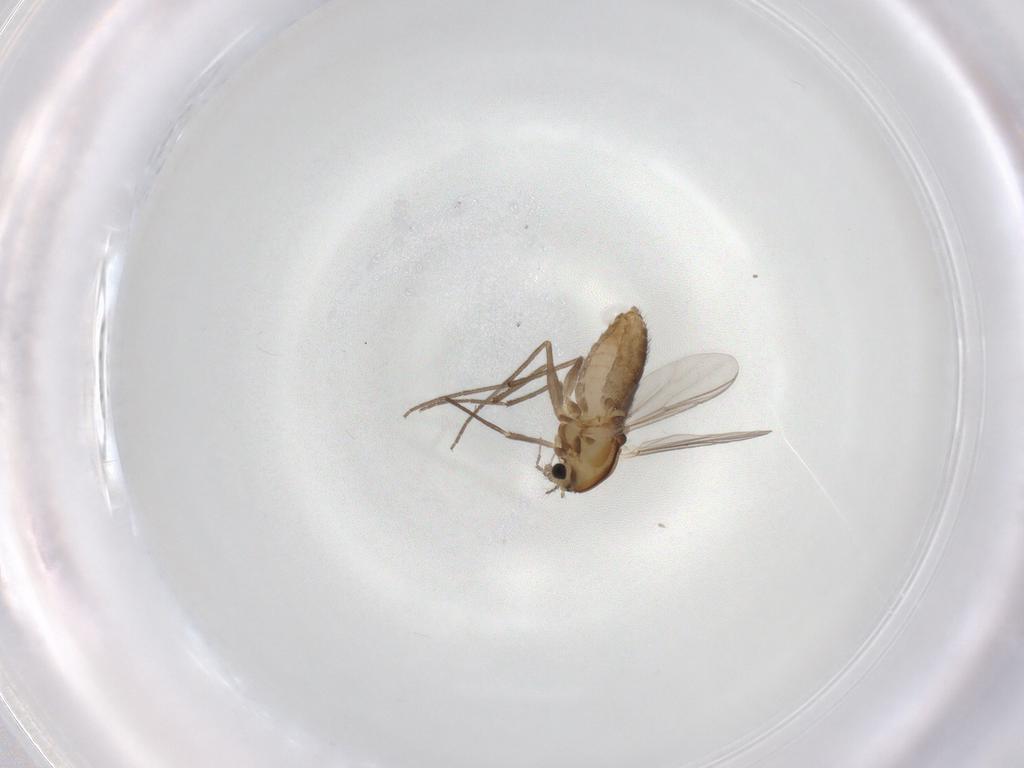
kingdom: Animalia
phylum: Arthropoda
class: Insecta
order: Diptera
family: Chironomidae
